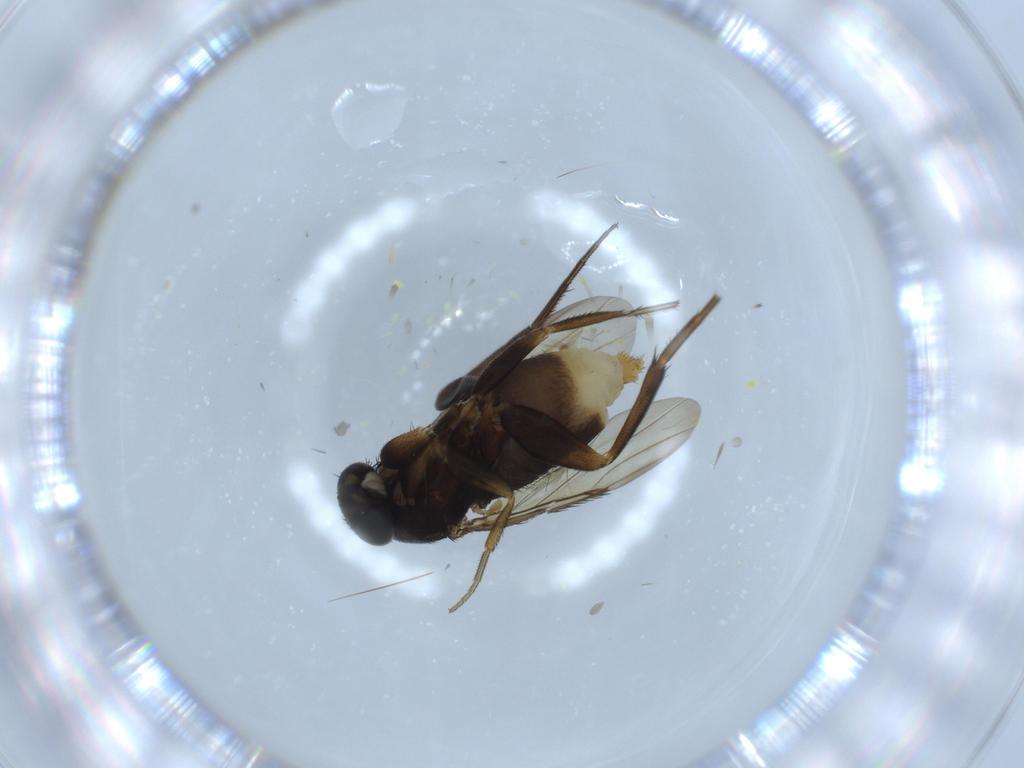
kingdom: Animalia
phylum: Arthropoda
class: Insecta
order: Diptera
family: Phoridae
